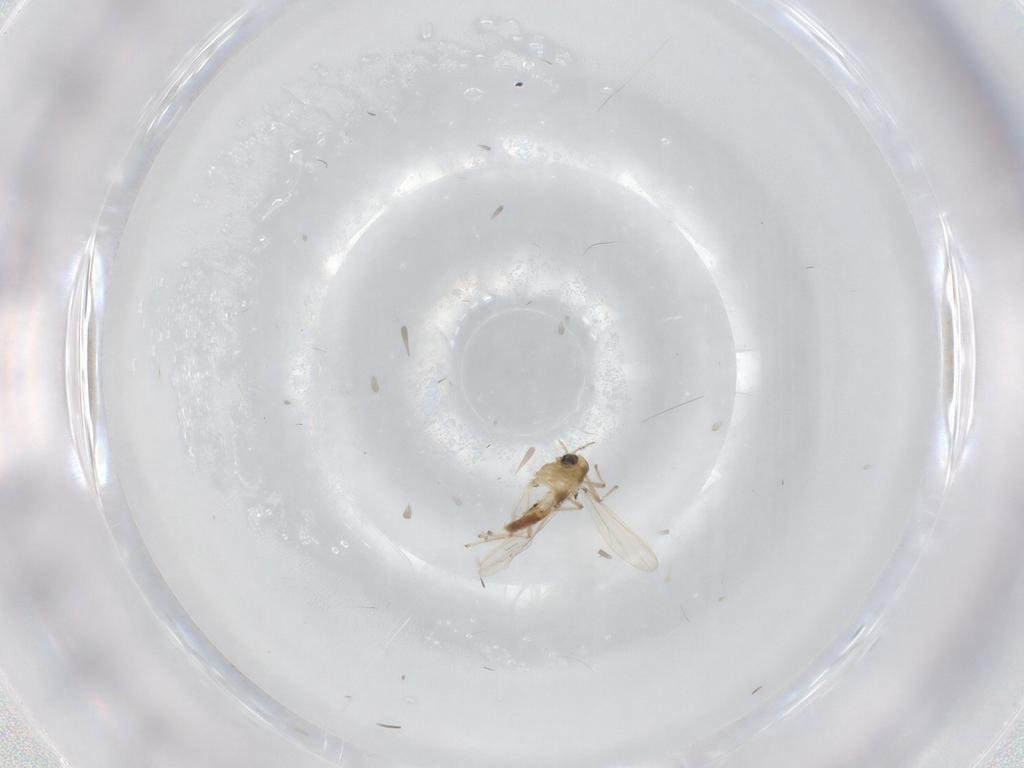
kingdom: Animalia
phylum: Arthropoda
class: Insecta
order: Diptera
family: Chironomidae
